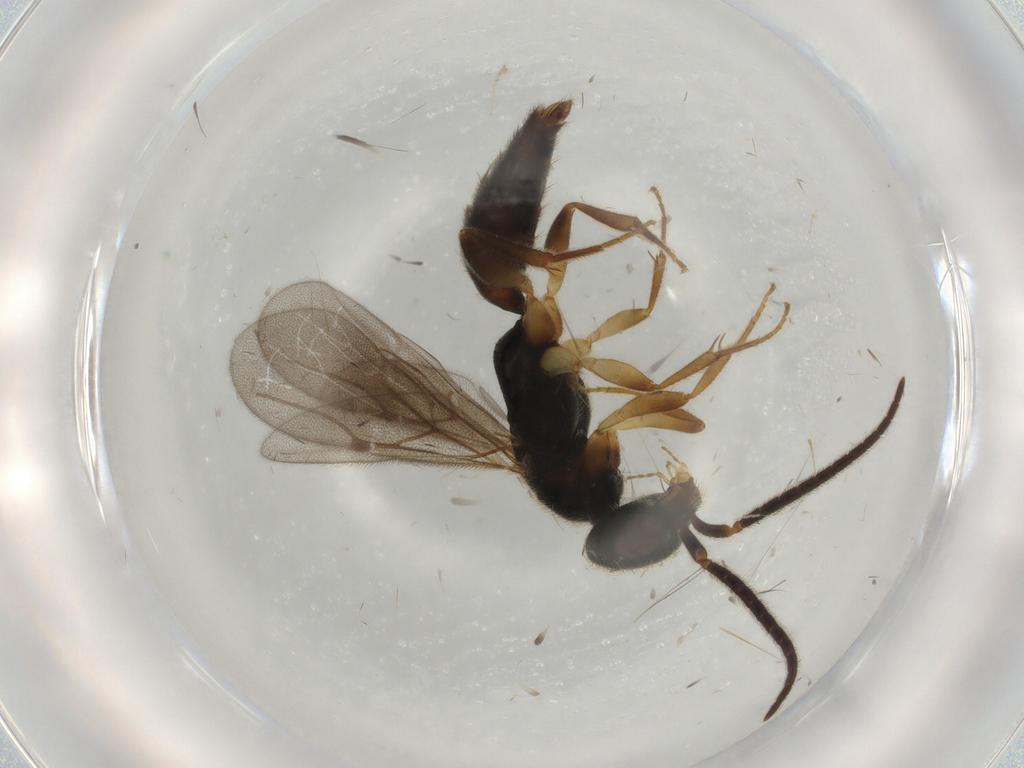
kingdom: Animalia
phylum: Arthropoda
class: Insecta
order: Hymenoptera
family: Bethylidae
